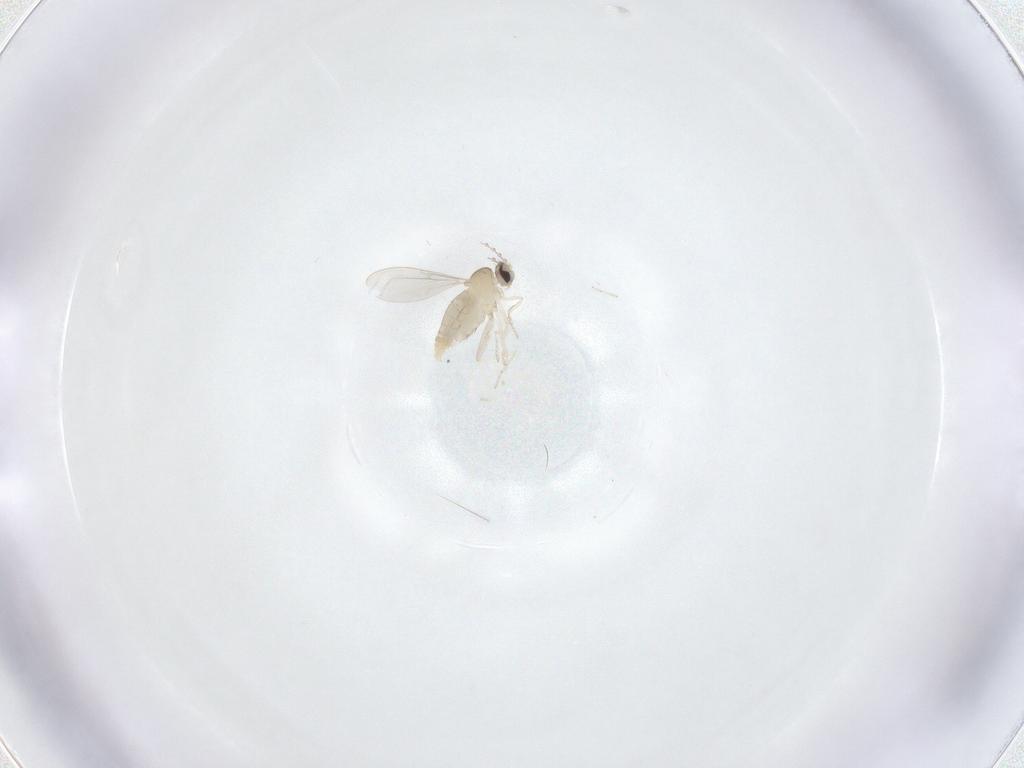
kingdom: Animalia
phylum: Arthropoda
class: Insecta
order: Diptera
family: Cecidomyiidae
